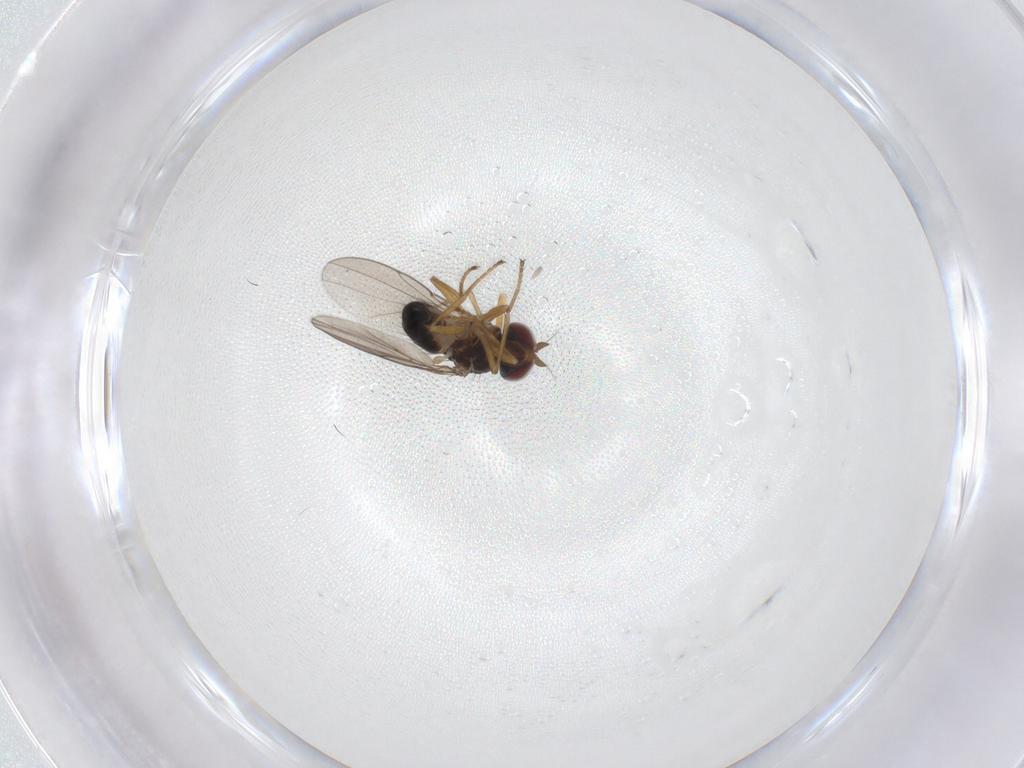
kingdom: Animalia
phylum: Arthropoda
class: Insecta
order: Diptera
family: Ephydridae
